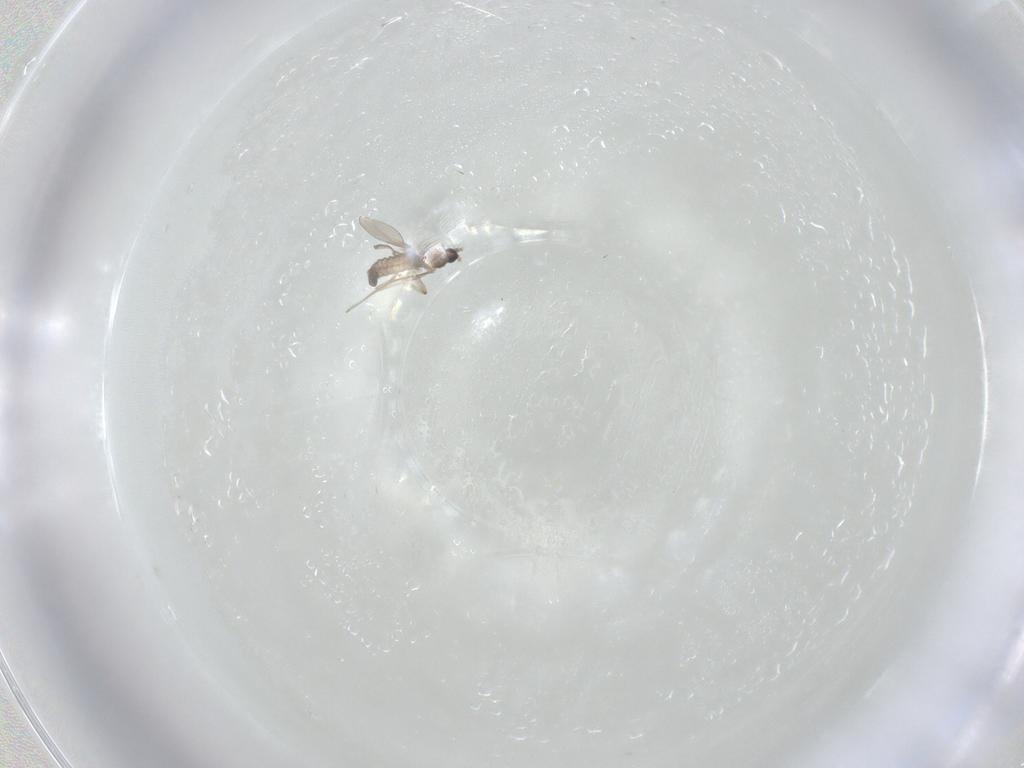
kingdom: Animalia
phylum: Arthropoda
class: Insecta
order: Diptera
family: Cecidomyiidae
